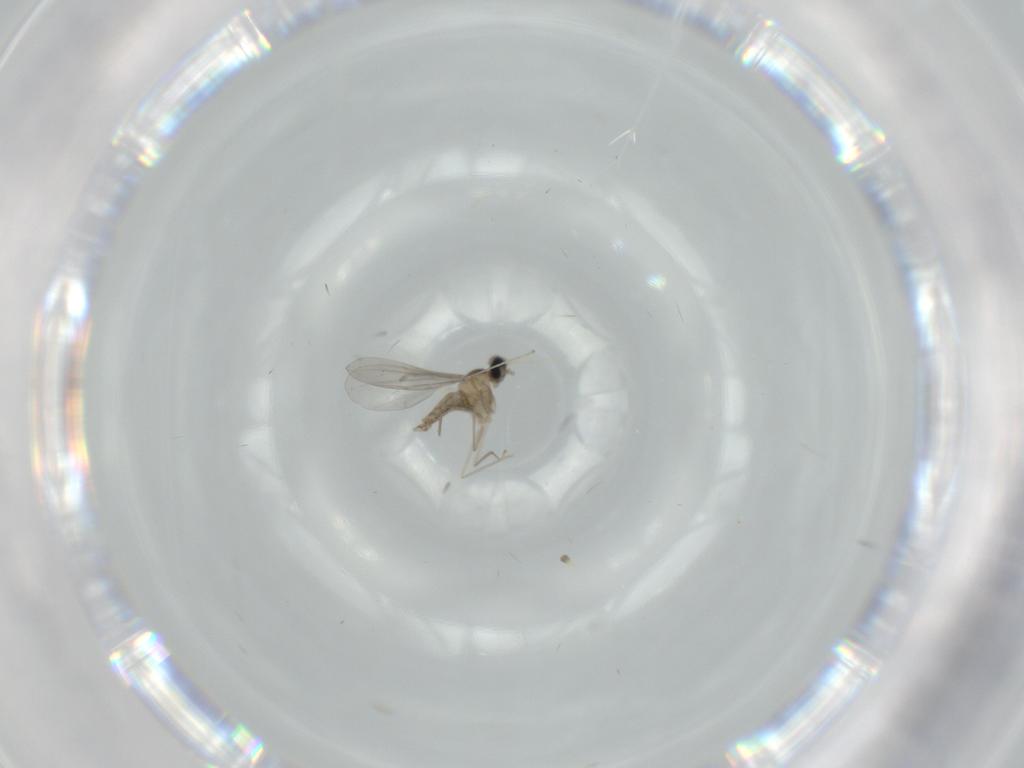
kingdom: Animalia
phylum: Arthropoda
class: Insecta
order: Diptera
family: Cecidomyiidae
